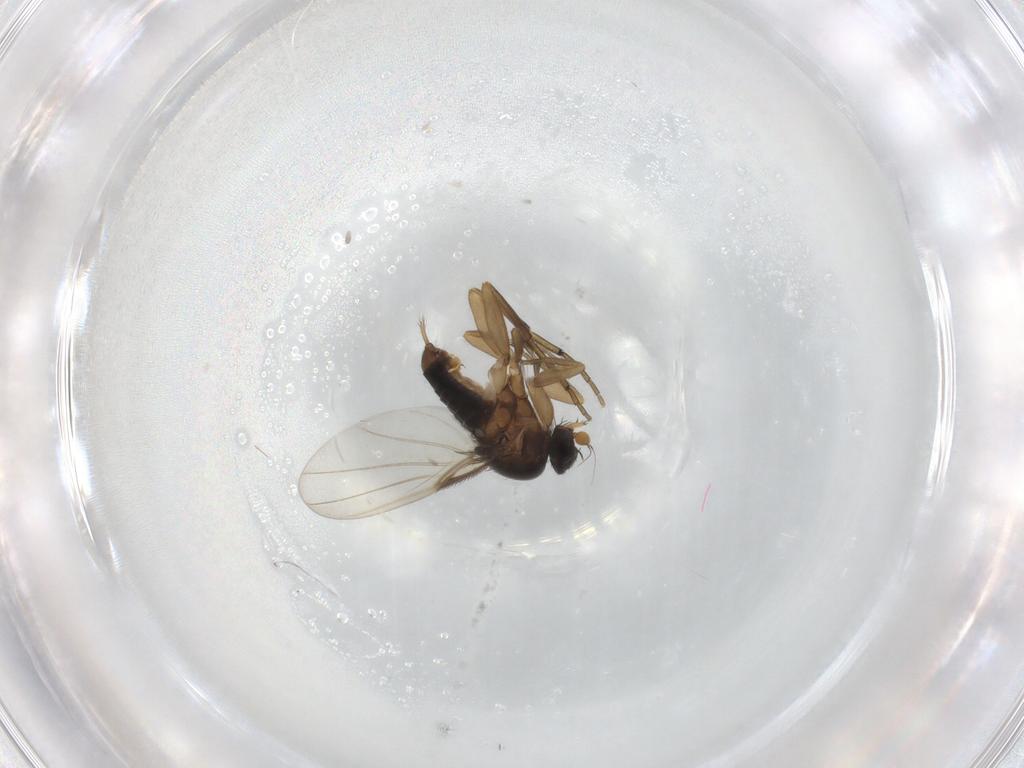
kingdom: Animalia
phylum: Arthropoda
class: Insecta
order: Diptera
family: Phoridae
